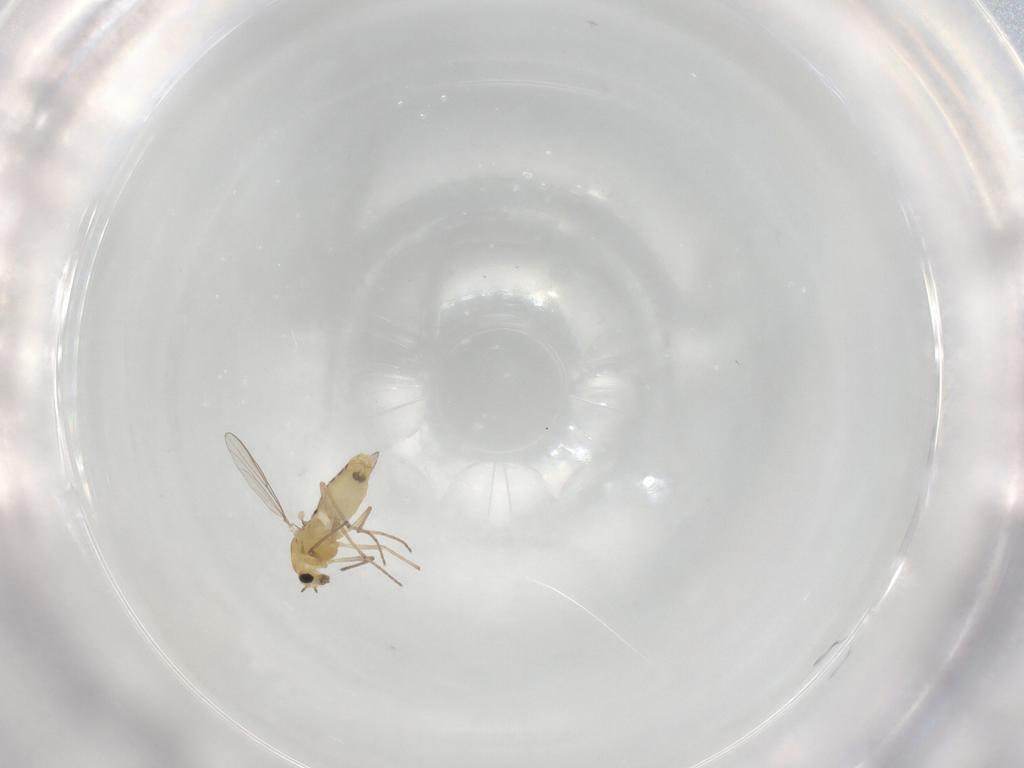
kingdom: Animalia
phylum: Arthropoda
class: Insecta
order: Diptera
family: Chironomidae
